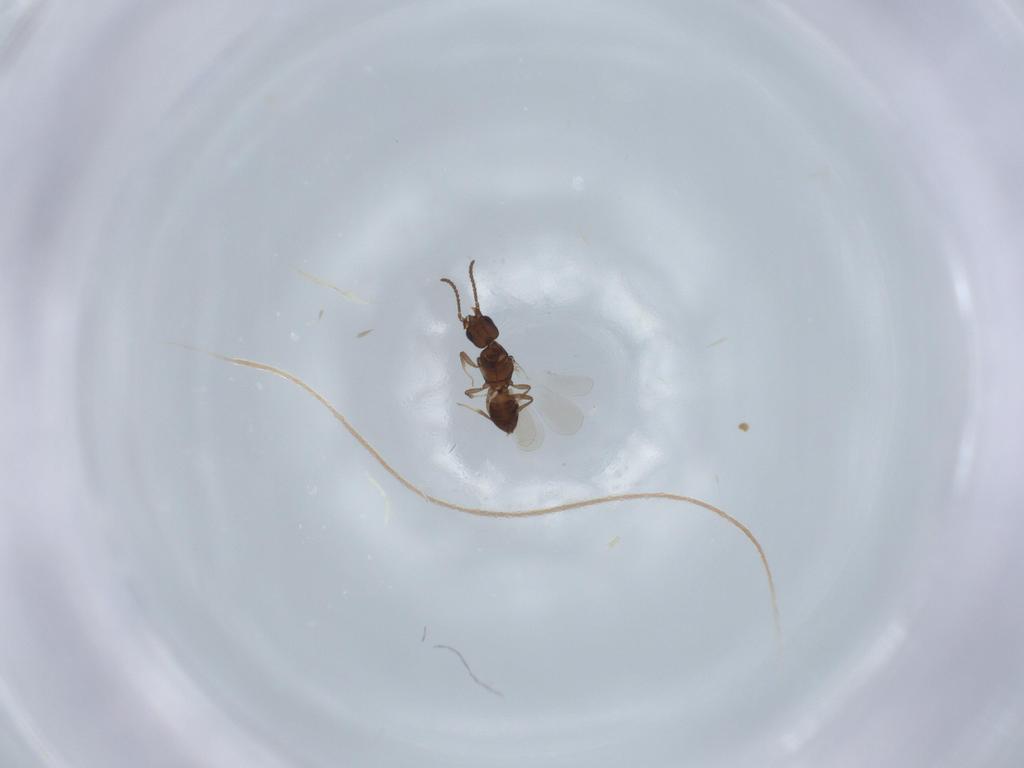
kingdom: Animalia
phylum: Arthropoda
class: Insecta
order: Hymenoptera
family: Bethylidae
